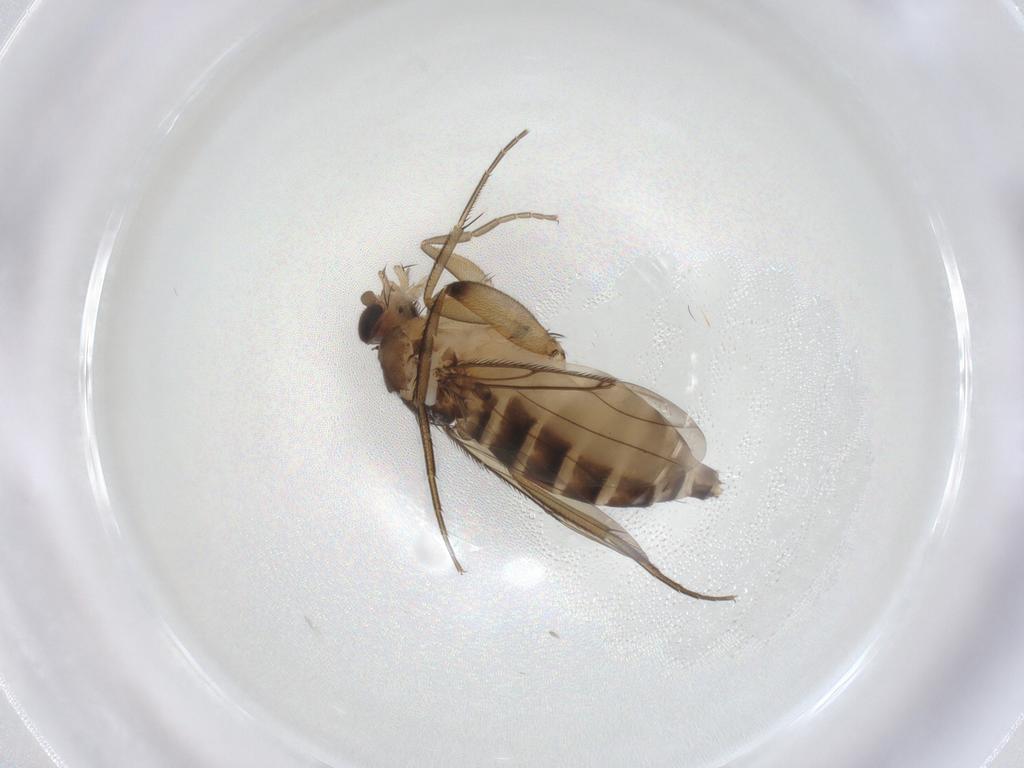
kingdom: Animalia
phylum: Arthropoda
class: Insecta
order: Diptera
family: Phoridae
